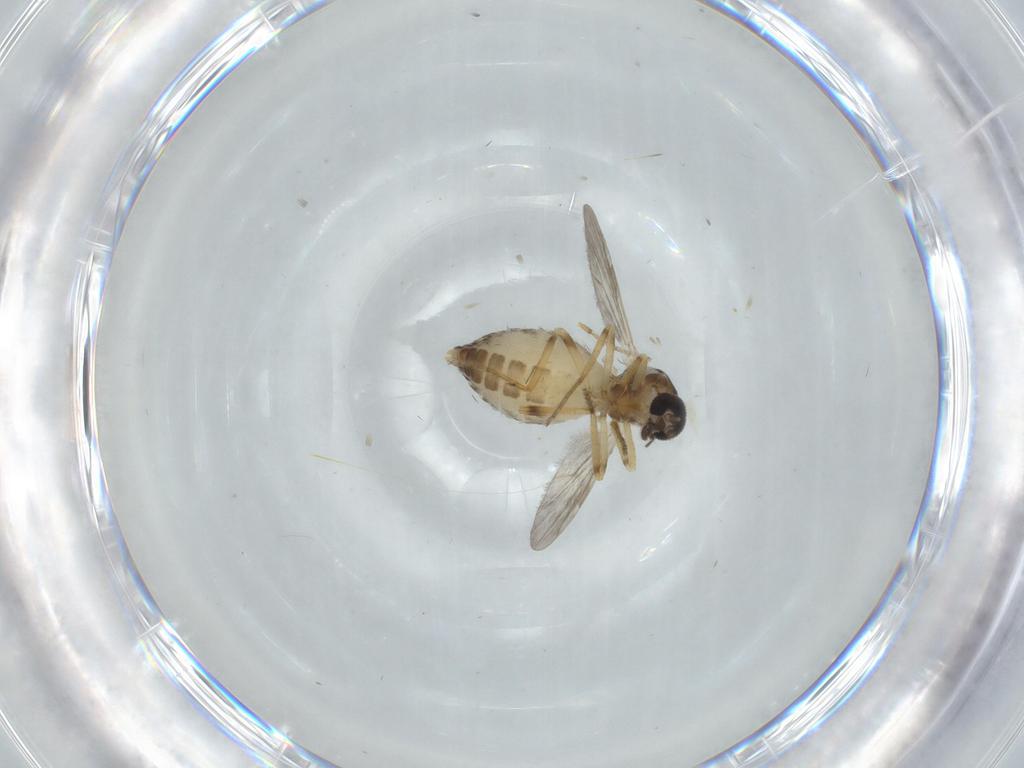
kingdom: Animalia
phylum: Arthropoda
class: Insecta
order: Diptera
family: Ceratopogonidae
